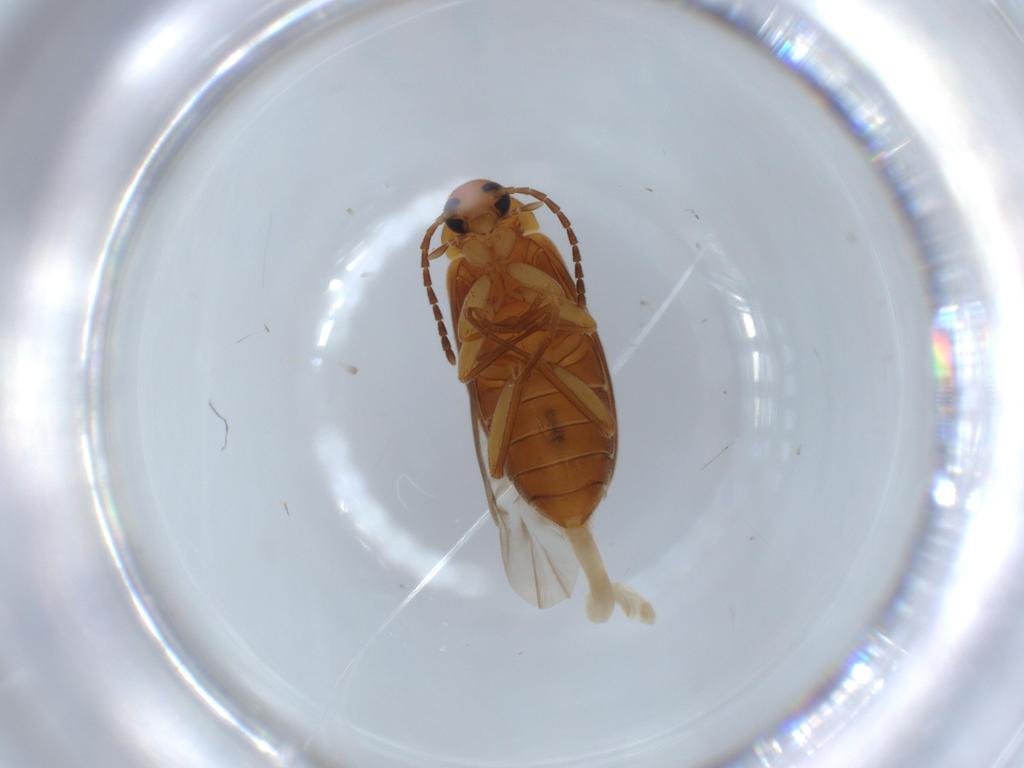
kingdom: Animalia
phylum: Arthropoda
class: Insecta
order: Coleoptera
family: Scraptiidae
